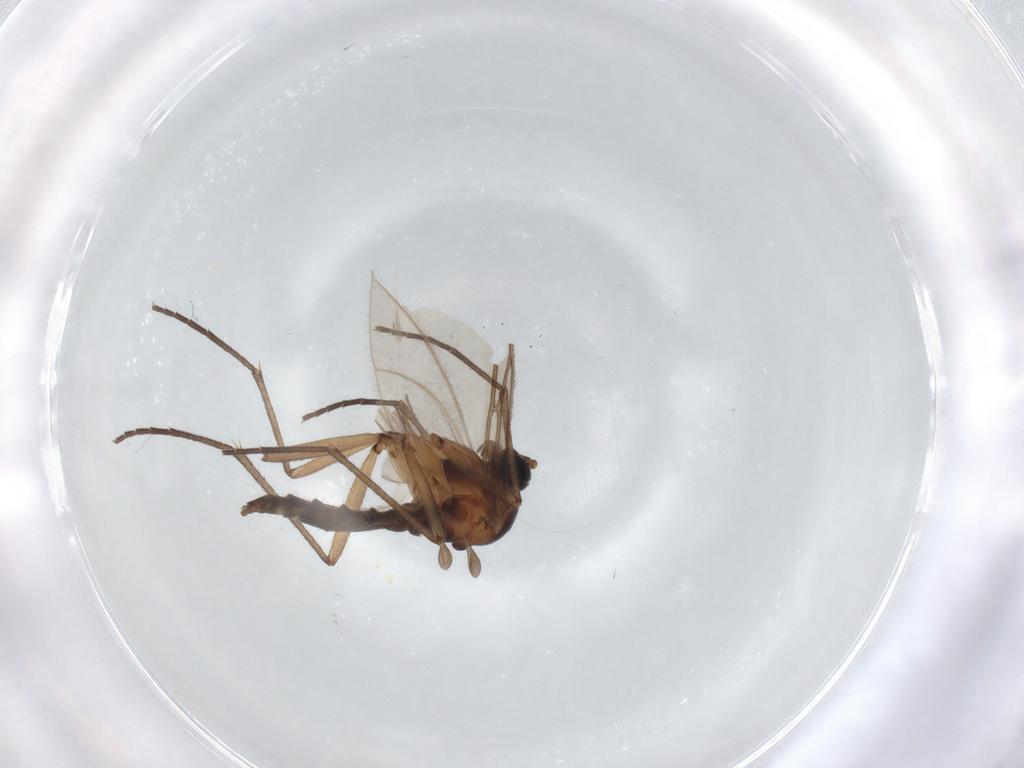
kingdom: Animalia
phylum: Arthropoda
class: Insecta
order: Diptera
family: Sciaridae
